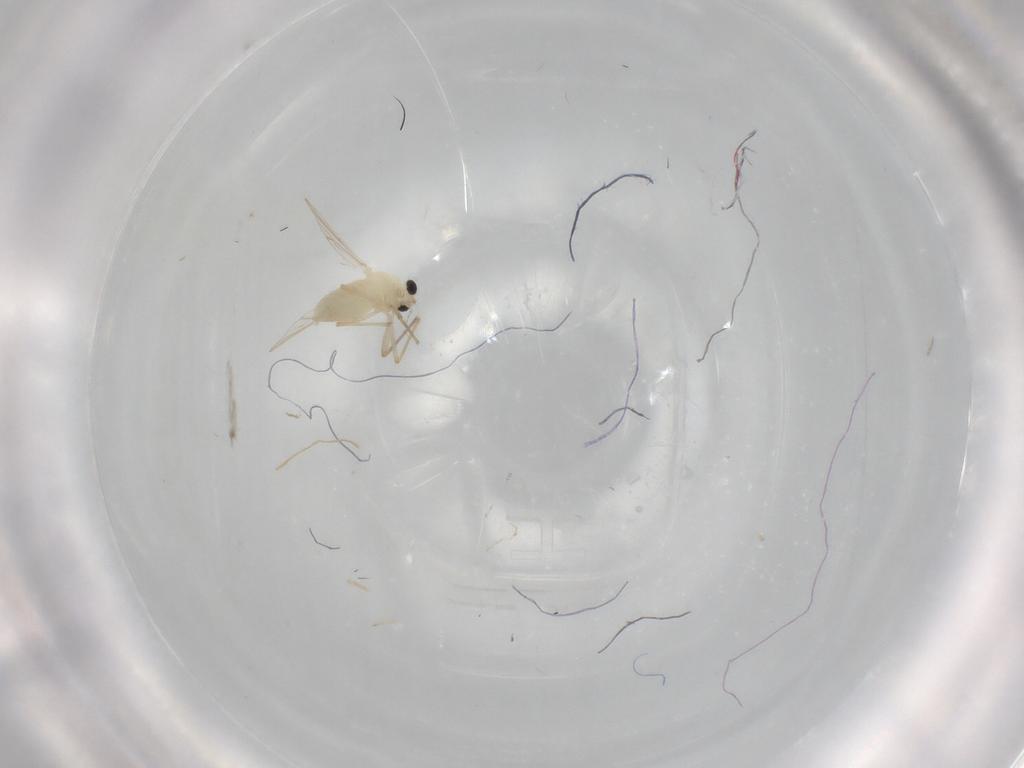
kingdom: Animalia
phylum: Arthropoda
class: Insecta
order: Diptera
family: Chironomidae
